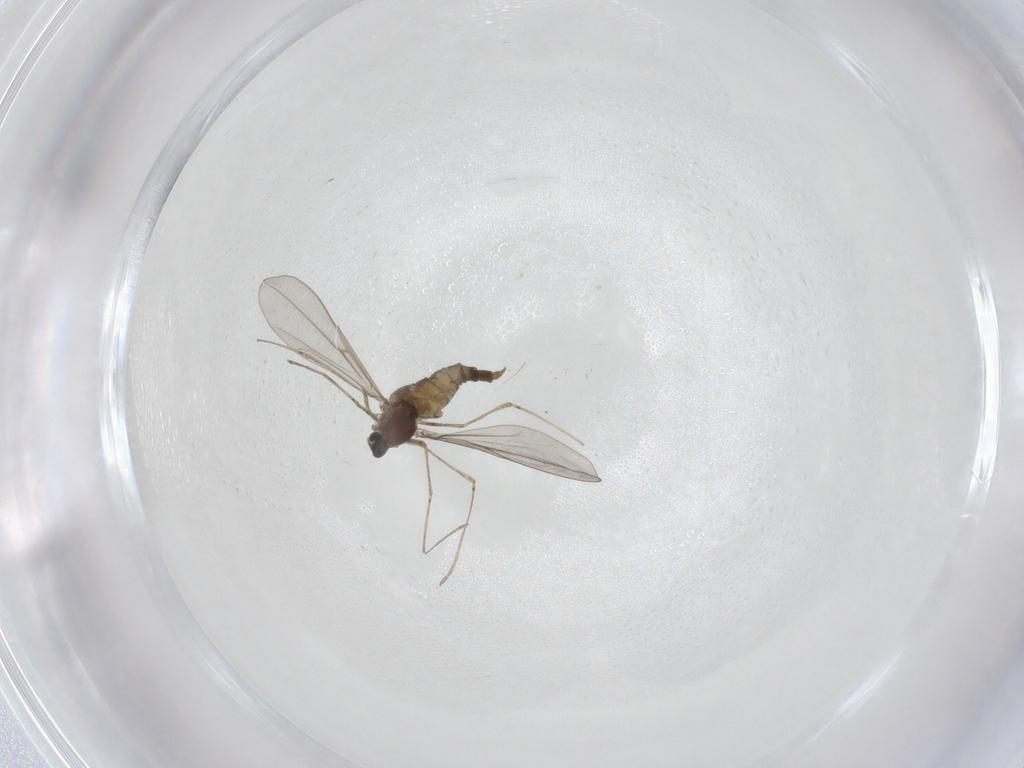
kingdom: Animalia
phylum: Arthropoda
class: Insecta
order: Diptera
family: Cecidomyiidae
